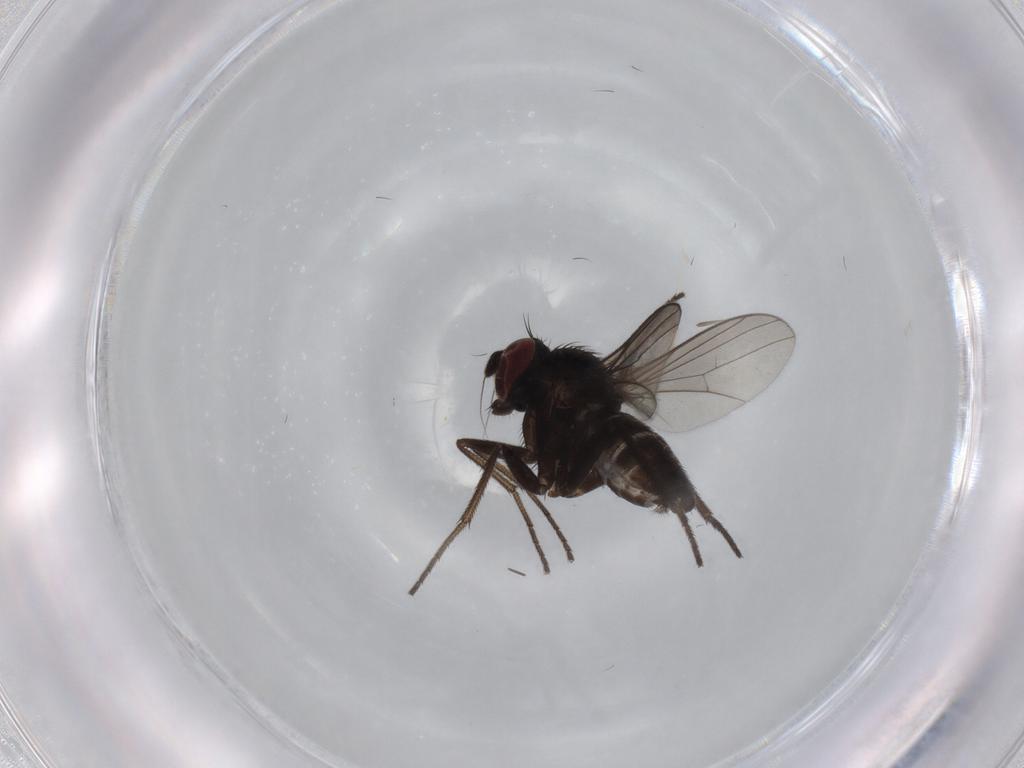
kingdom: Animalia
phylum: Arthropoda
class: Insecta
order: Diptera
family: Dolichopodidae
